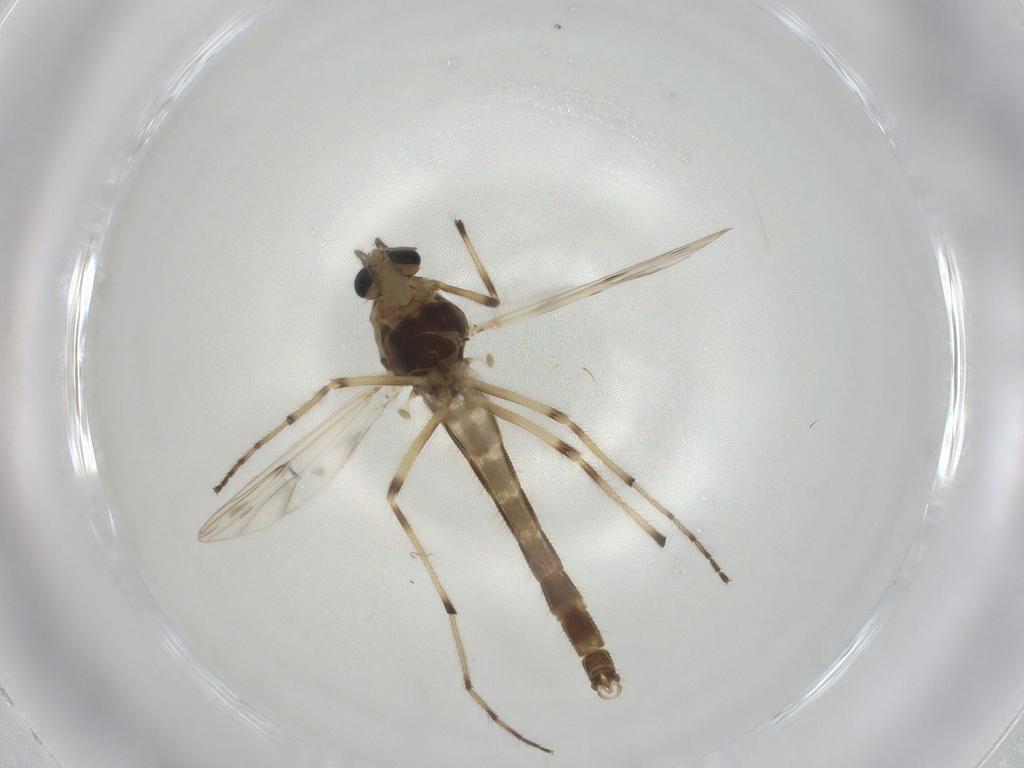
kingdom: Animalia
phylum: Arthropoda
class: Insecta
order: Diptera
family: Chironomidae
